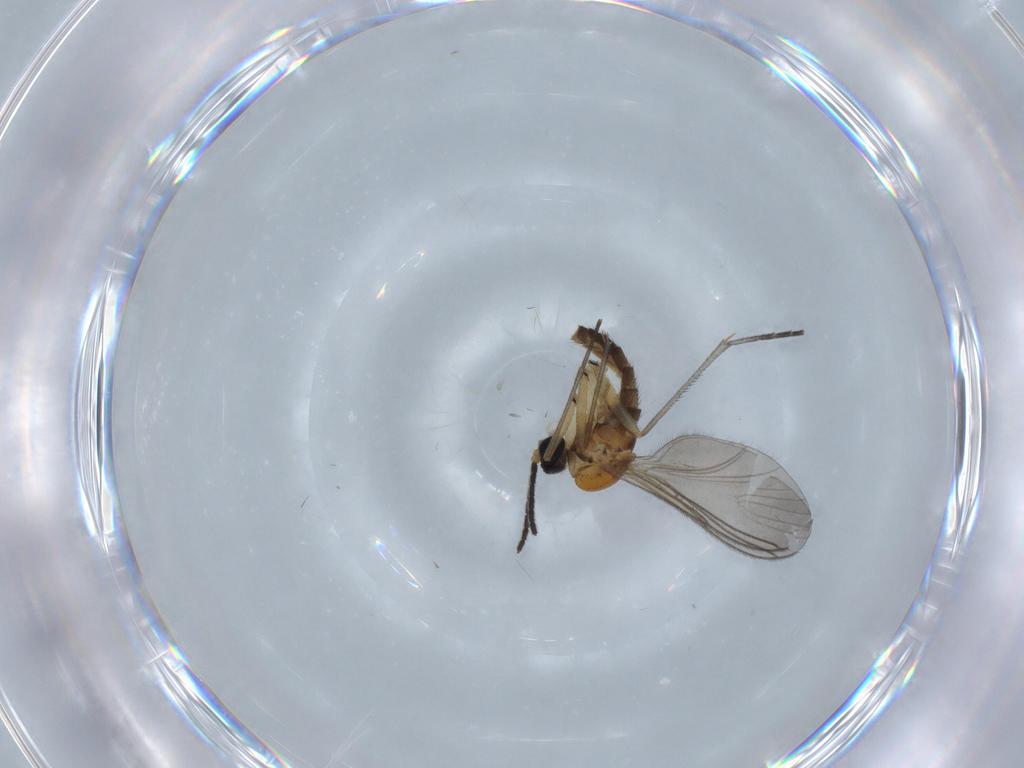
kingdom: Animalia
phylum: Arthropoda
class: Insecta
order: Diptera
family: Sciaridae
